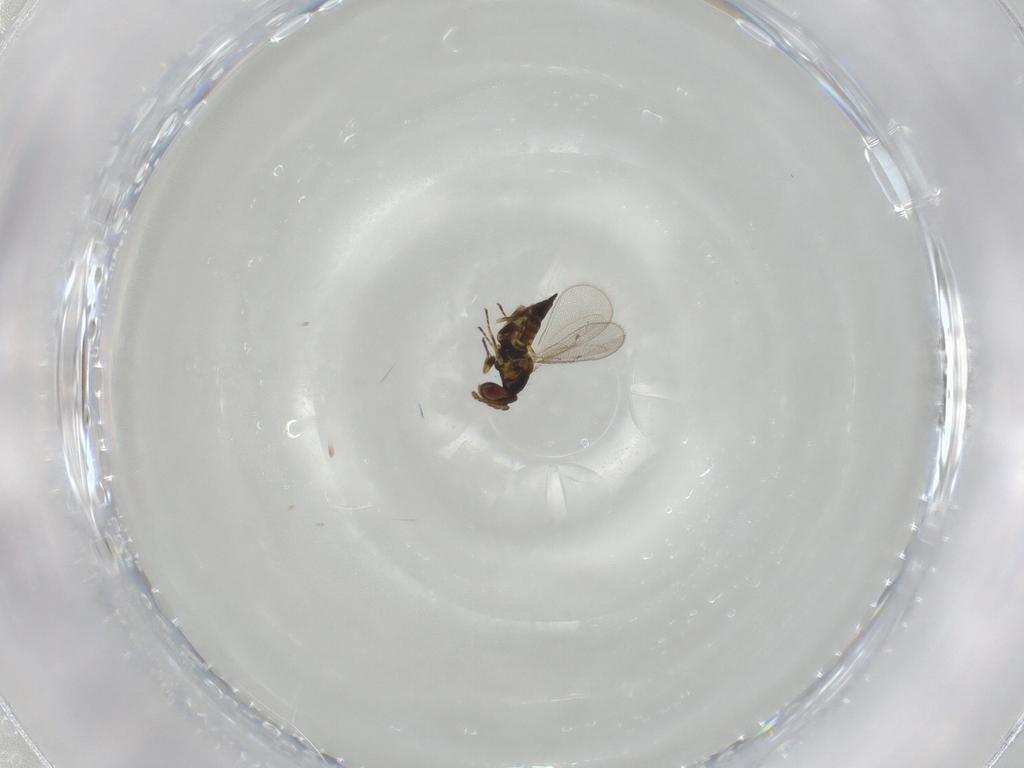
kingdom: Animalia
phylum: Arthropoda
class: Insecta
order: Hymenoptera
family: Eulophidae
